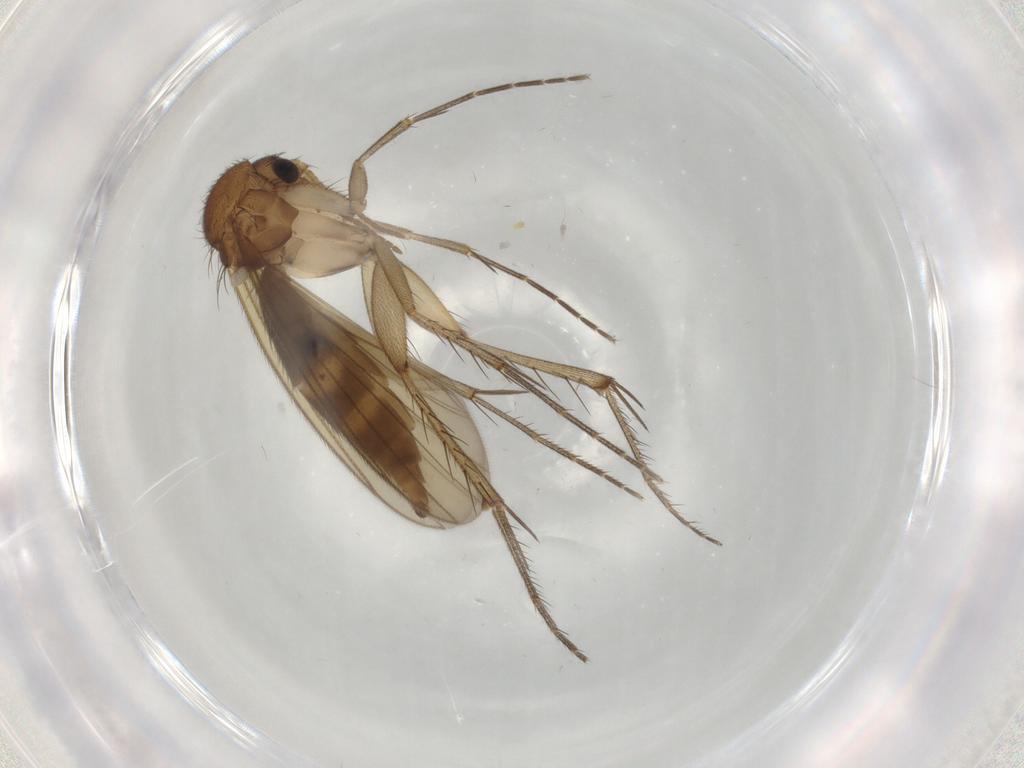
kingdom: Animalia
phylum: Arthropoda
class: Insecta
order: Diptera
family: Mycetophilidae
